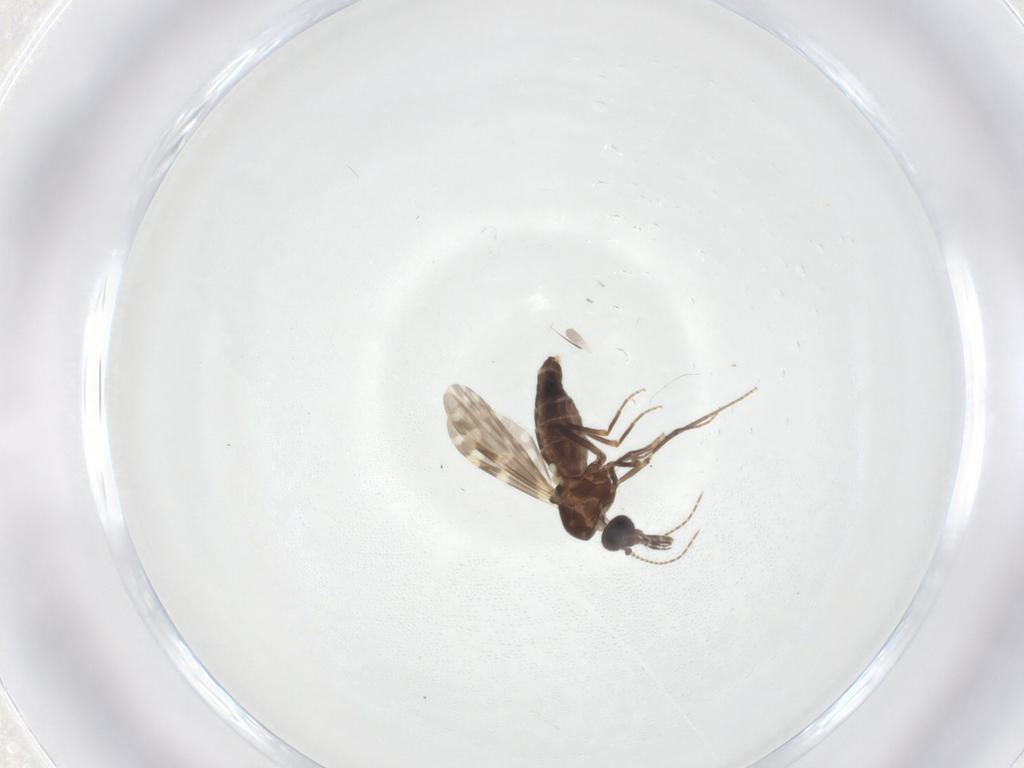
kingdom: Animalia
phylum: Arthropoda
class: Insecta
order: Diptera
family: Ceratopogonidae
